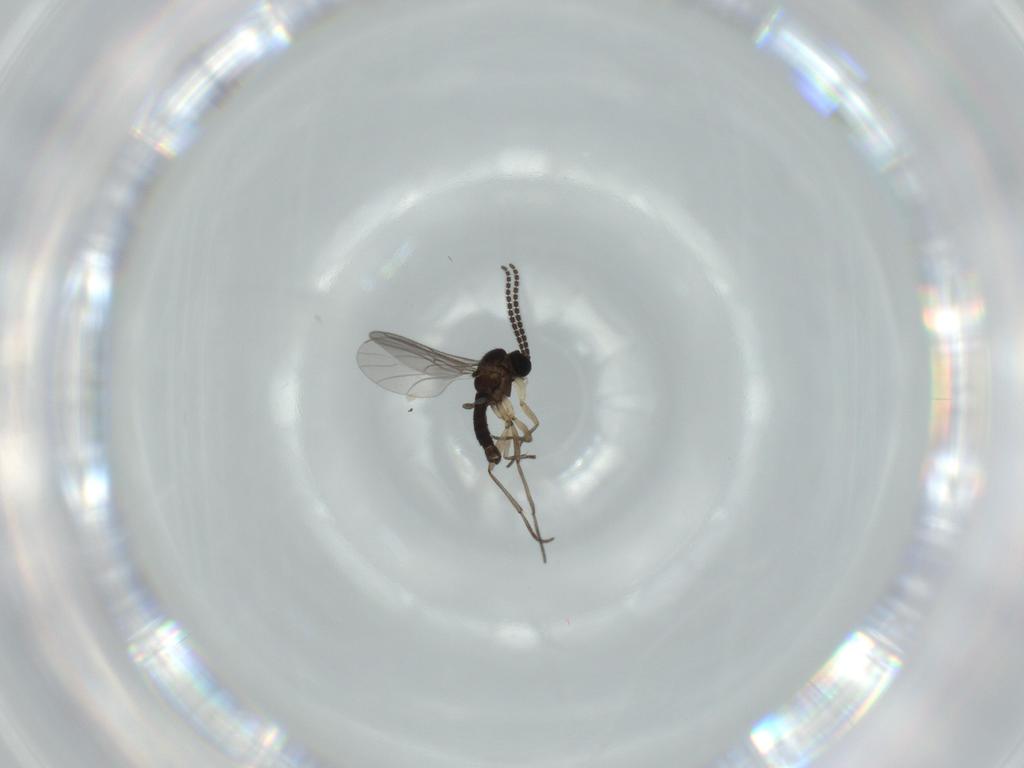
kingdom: Animalia
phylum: Arthropoda
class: Insecta
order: Diptera
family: Sciaridae
